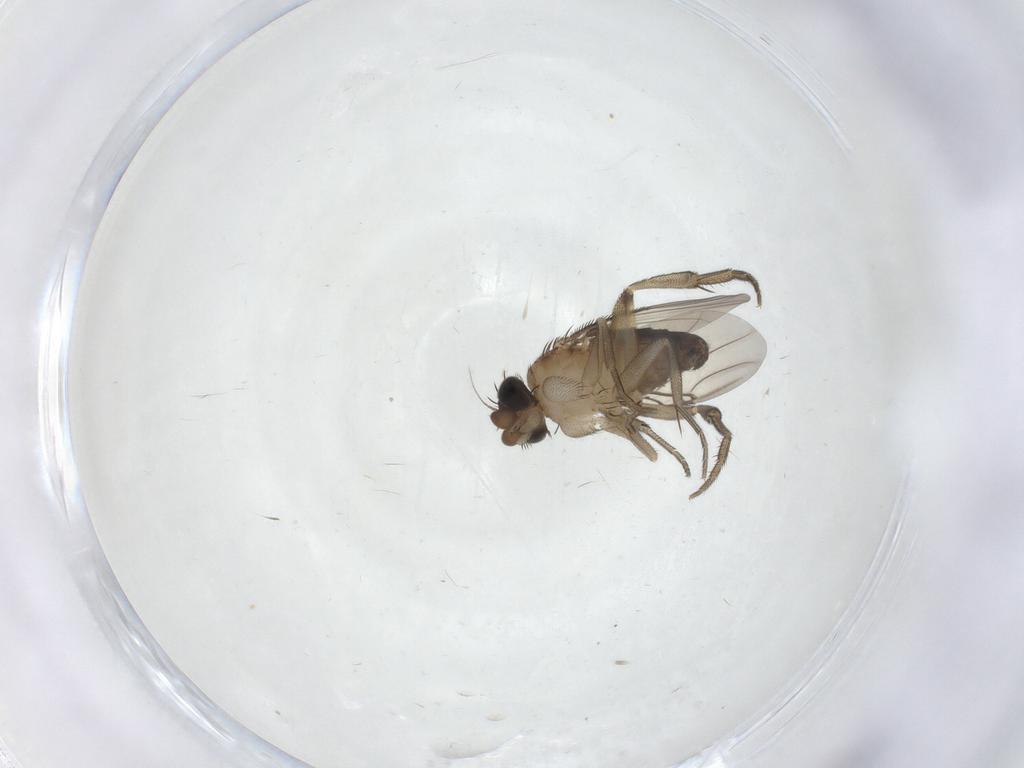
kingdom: Animalia
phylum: Arthropoda
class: Insecta
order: Diptera
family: Phoridae
